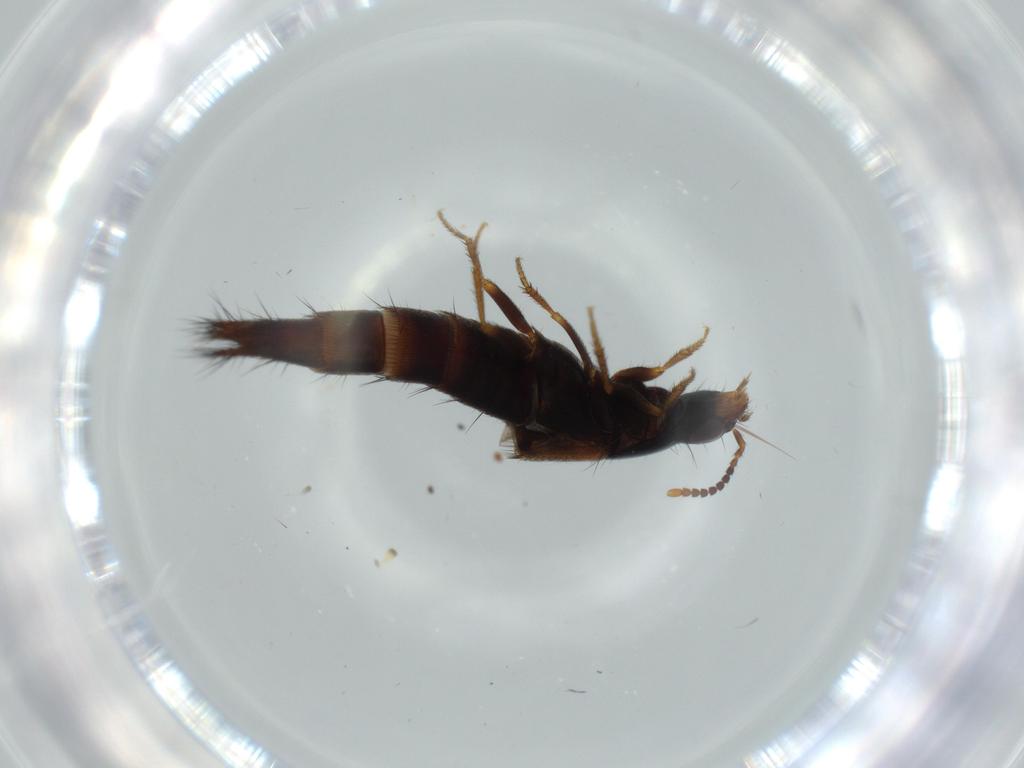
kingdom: Animalia
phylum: Arthropoda
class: Insecta
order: Coleoptera
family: Staphylinidae
